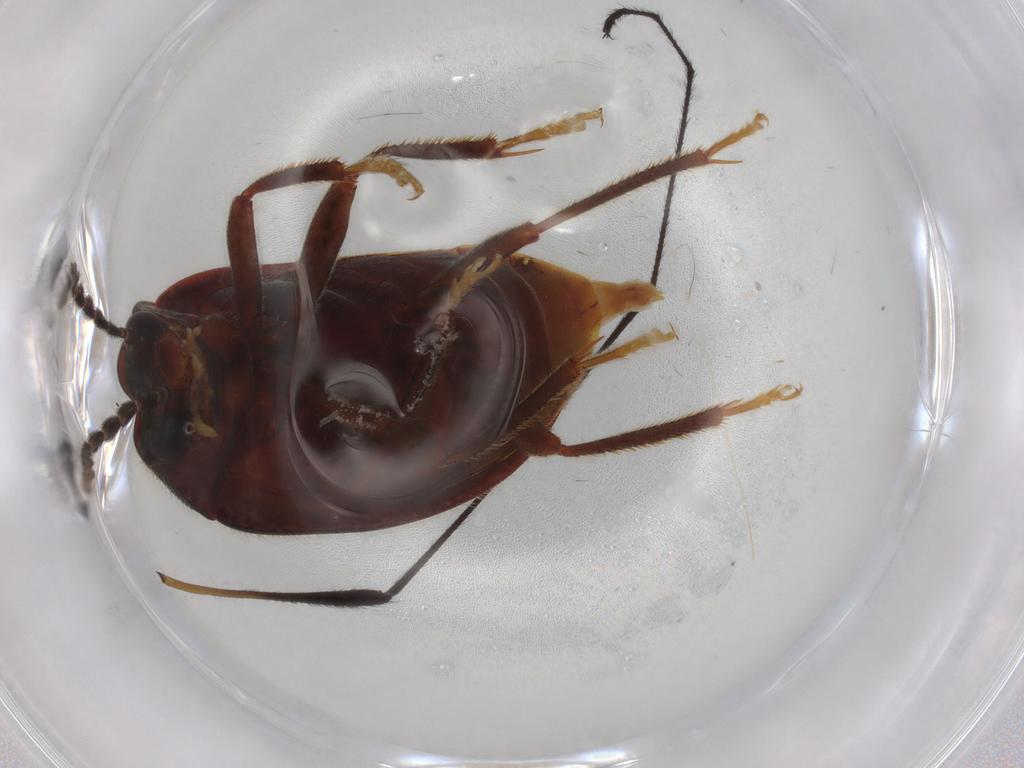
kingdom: Animalia
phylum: Arthropoda
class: Insecta
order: Coleoptera
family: Ptilodactylidae
